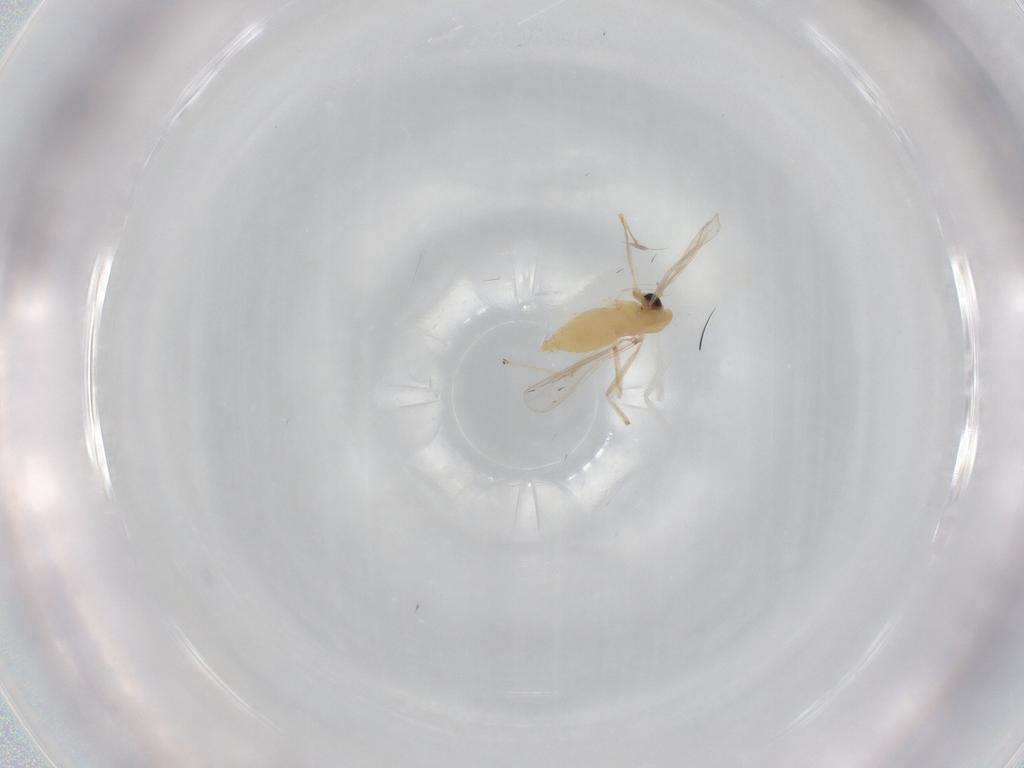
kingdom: Animalia
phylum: Arthropoda
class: Insecta
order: Diptera
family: Chironomidae
